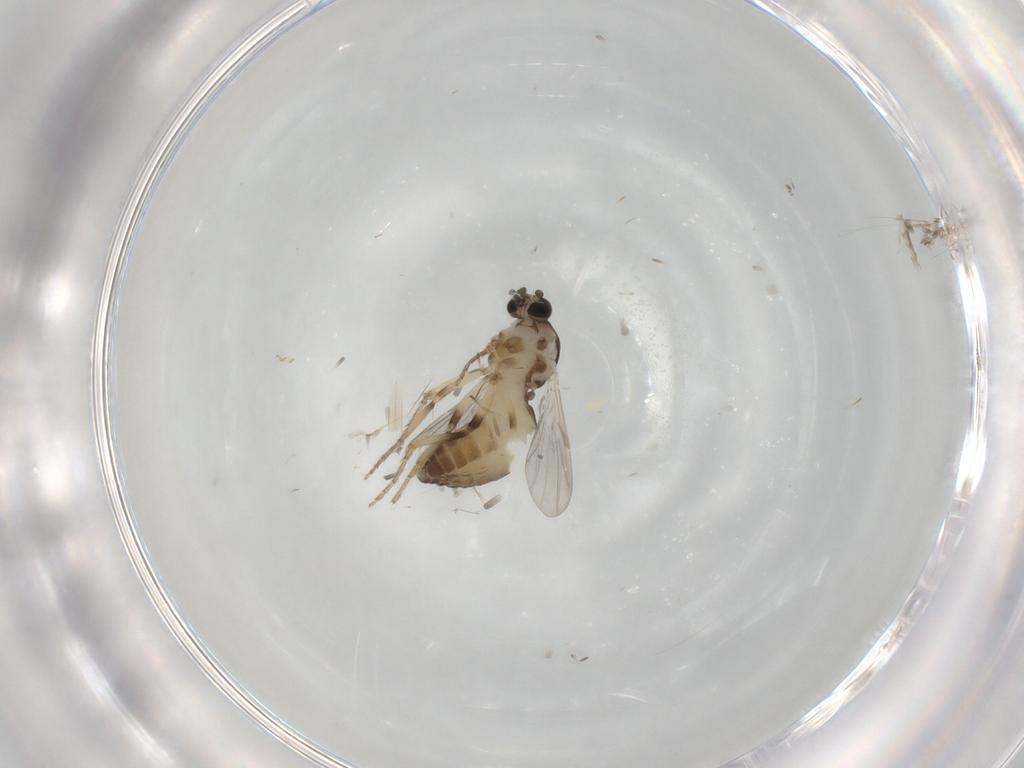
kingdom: Animalia
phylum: Arthropoda
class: Insecta
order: Diptera
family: Ceratopogonidae
